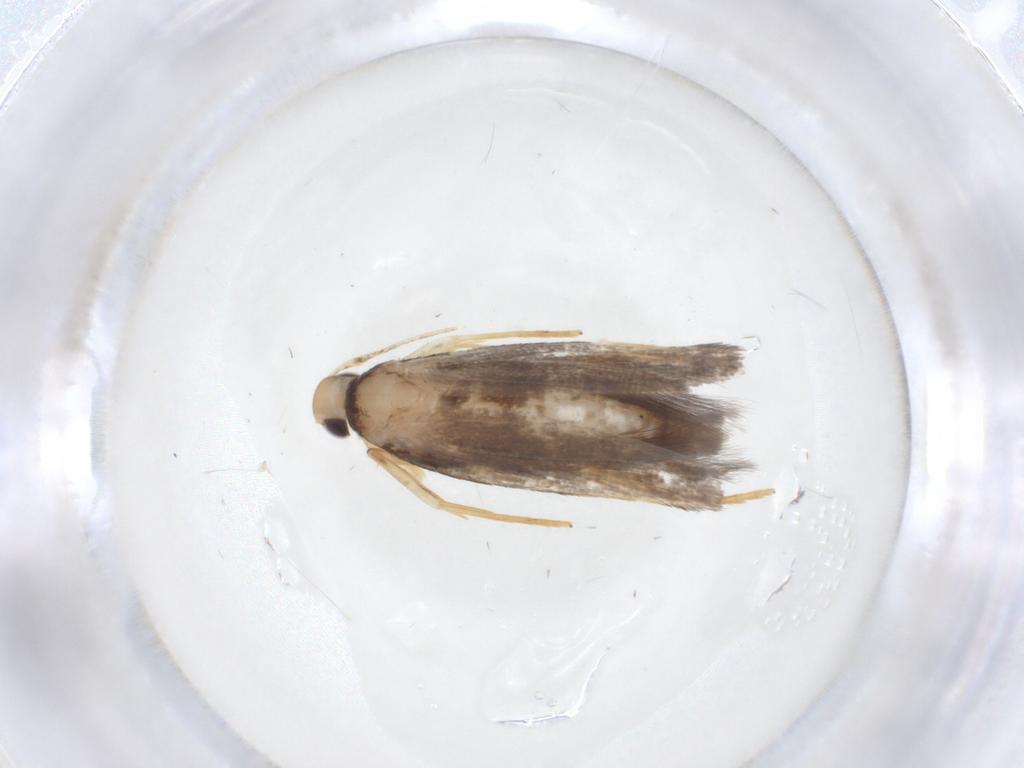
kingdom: Animalia
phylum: Arthropoda
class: Insecta
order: Lepidoptera
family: Cosmopterigidae
